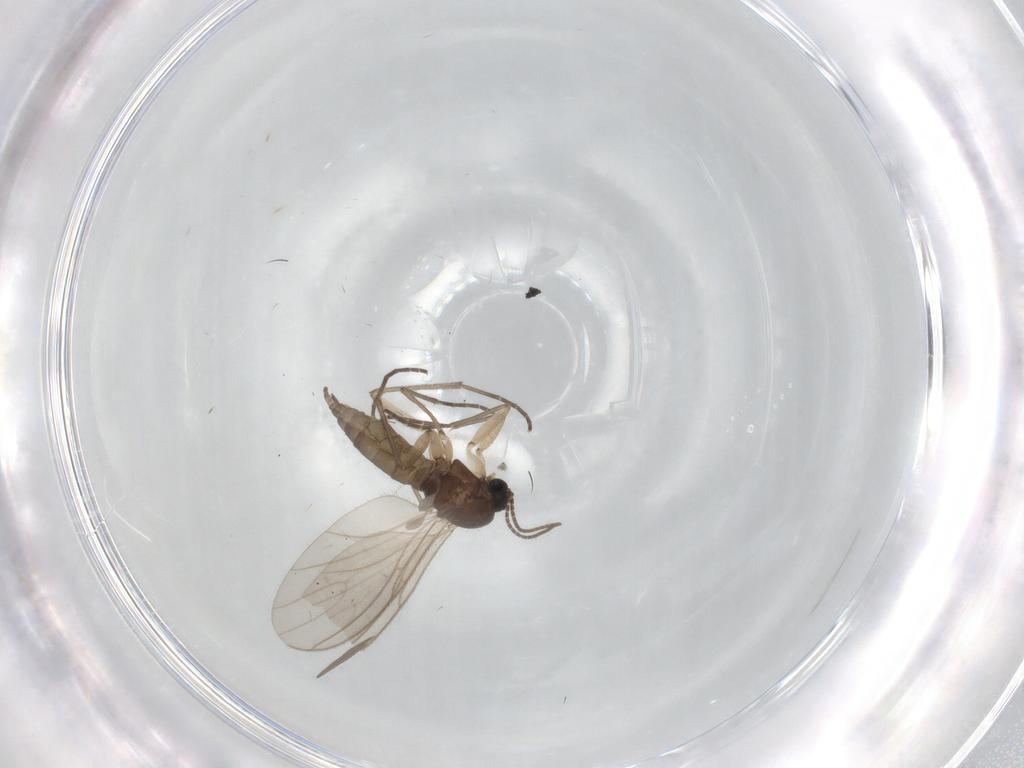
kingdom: Animalia
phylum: Arthropoda
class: Insecta
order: Diptera
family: Sciaridae
